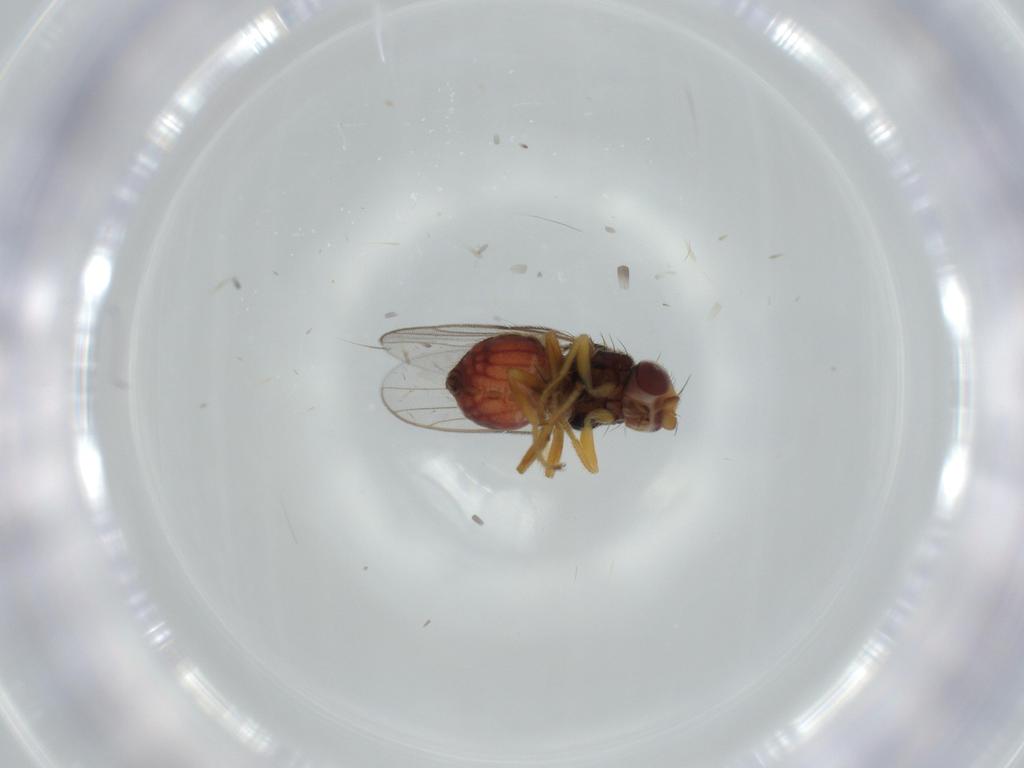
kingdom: Animalia
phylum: Arthropoda
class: Insecta
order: Diptera
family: Chloropidae
